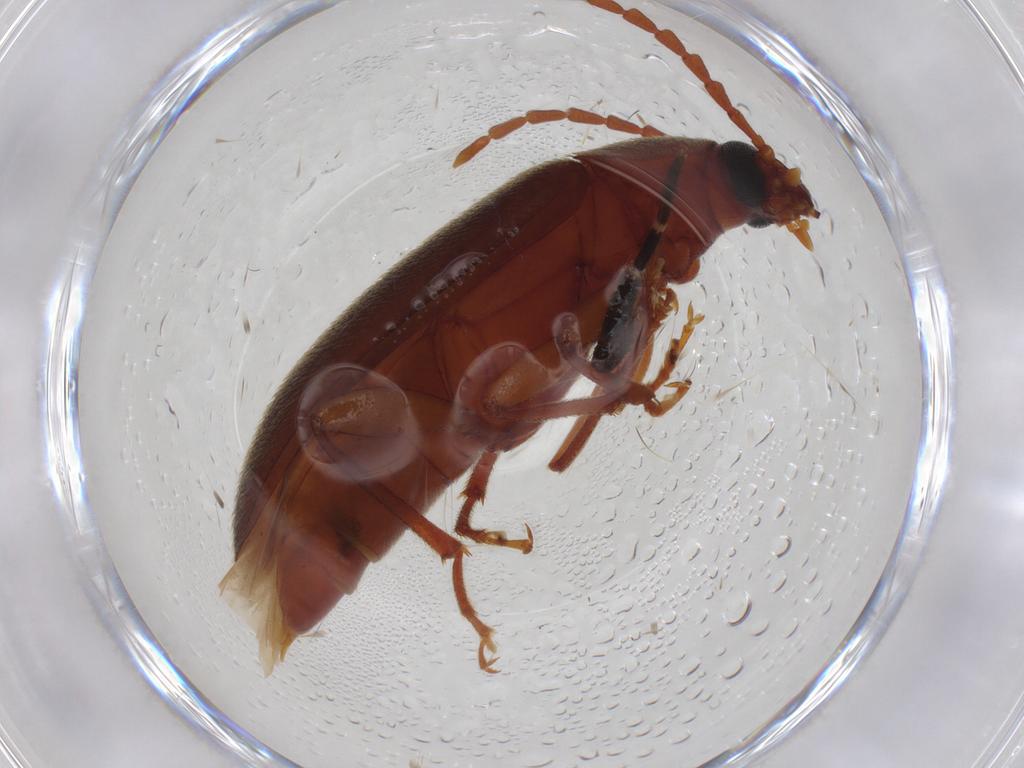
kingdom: Animalia
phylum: Arthropoda
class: Insecta
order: Coleoptera
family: Tenebrionidae
